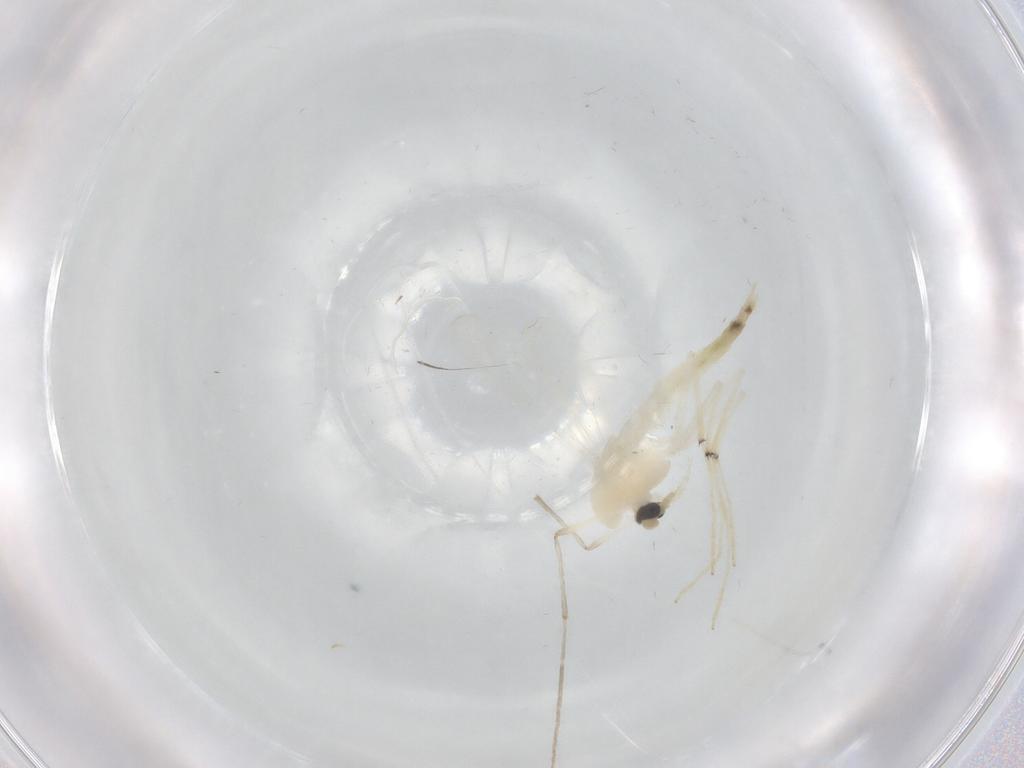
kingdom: Animalia
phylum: Arthropoda
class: Insecta
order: Diptera
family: Chironomidae
